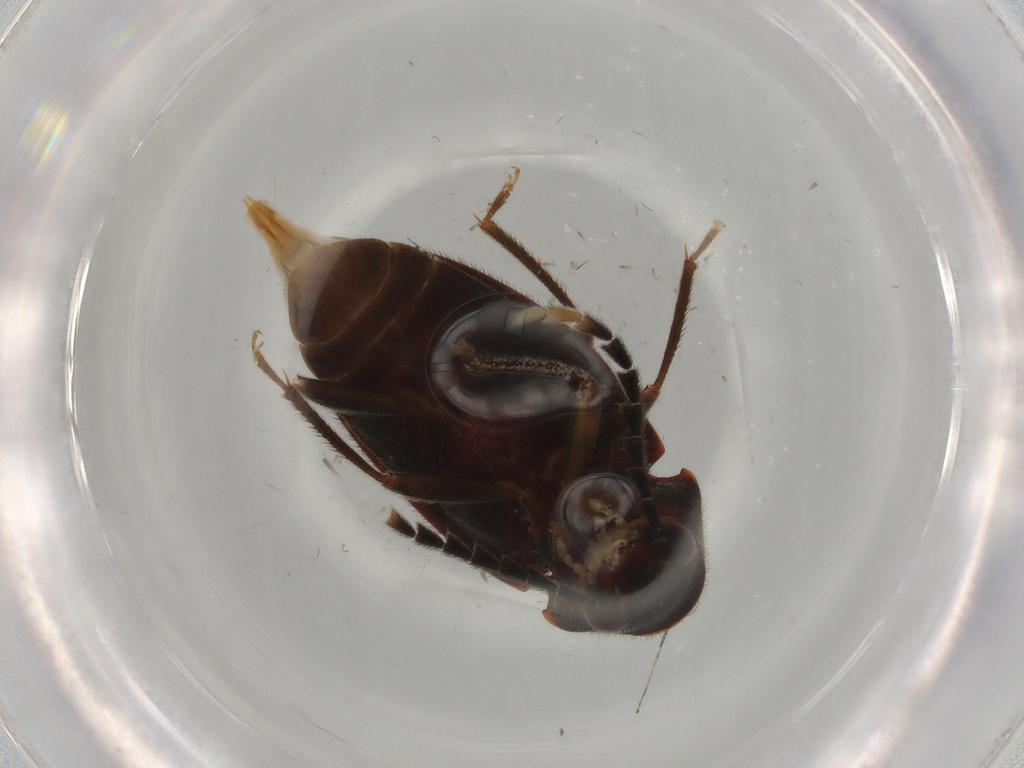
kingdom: Animalia
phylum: Arthropoda
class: Insecta
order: Coleoptera
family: Ptilodactylidae
